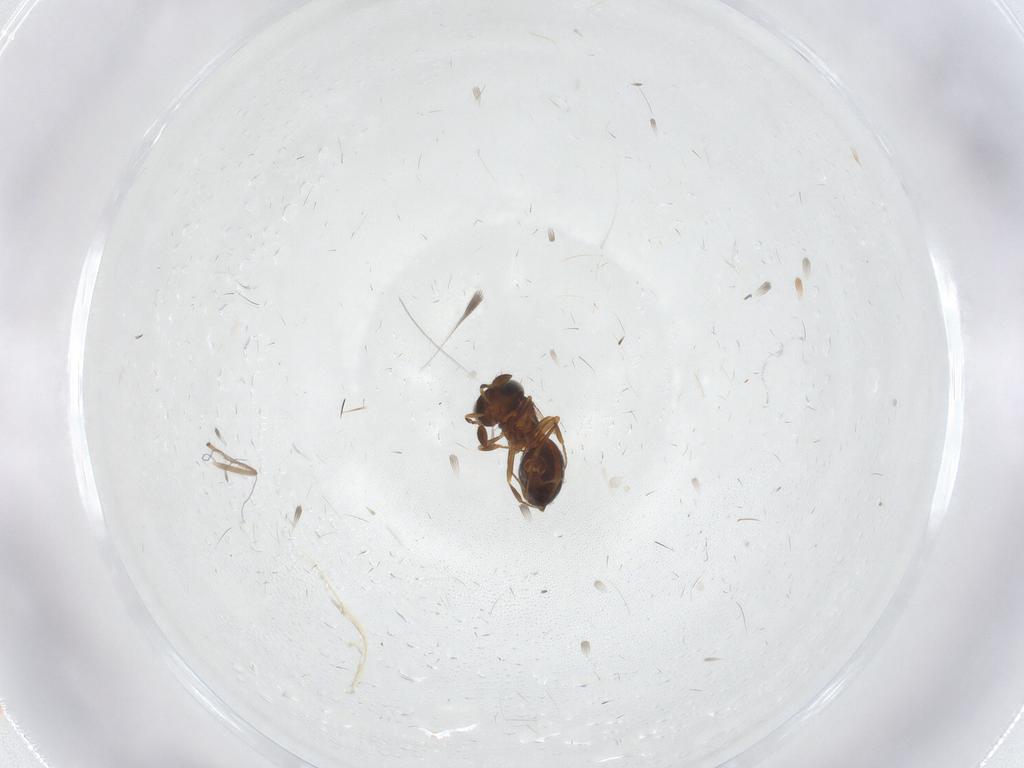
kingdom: Animalia
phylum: Arthropoda
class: Insecta
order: Hymenoptera
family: Scelionidae
